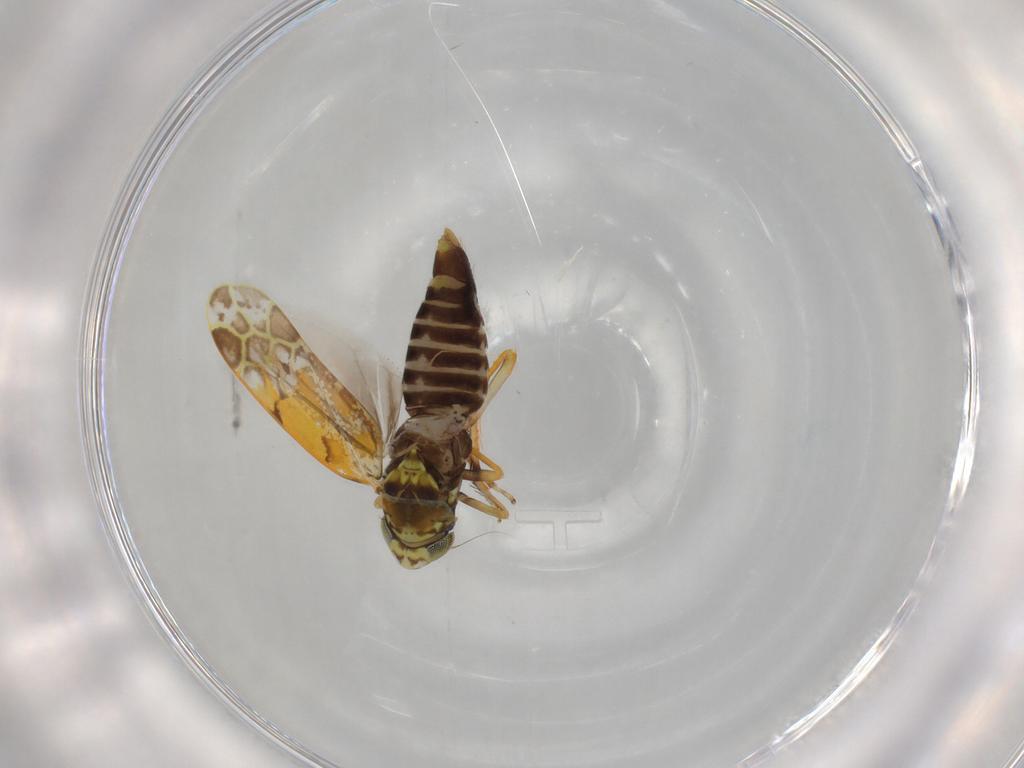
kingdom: Animalia
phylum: Arthropoda
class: Insecta
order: Hemiptera
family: Cicadellidae
